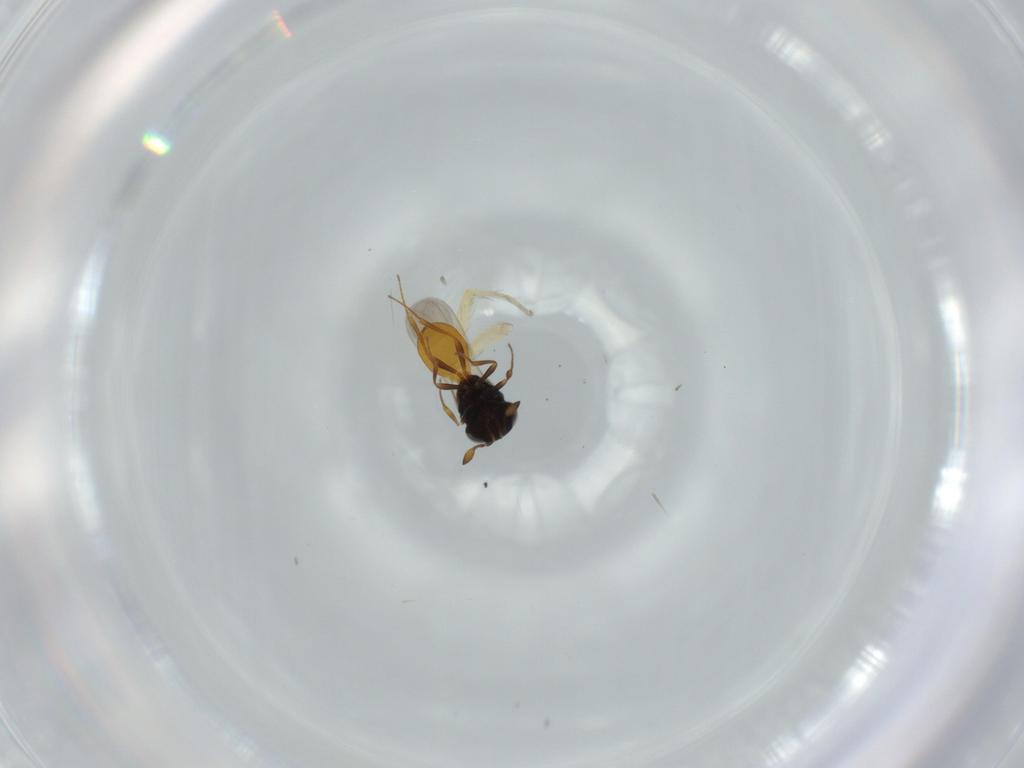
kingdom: Animalia
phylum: Arthropoda
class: Insecta
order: Hymenoptera
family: Scelionidae
